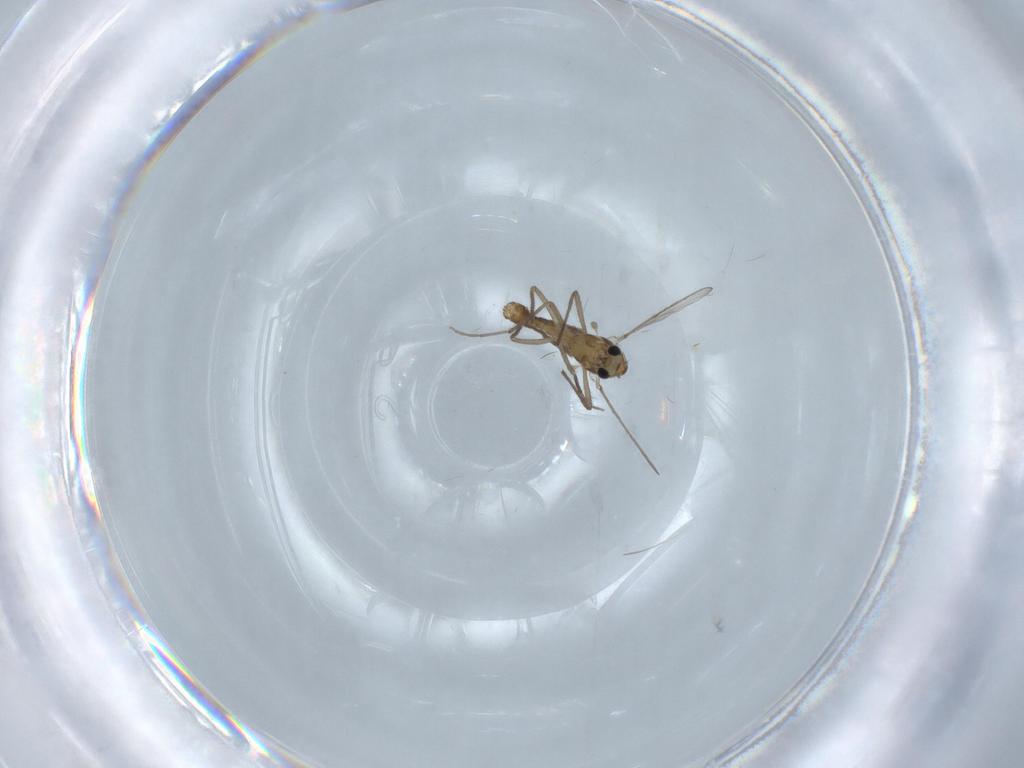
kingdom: Animalia
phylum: Arthropoda
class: Insecta
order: Diptera
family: Chironomidae
